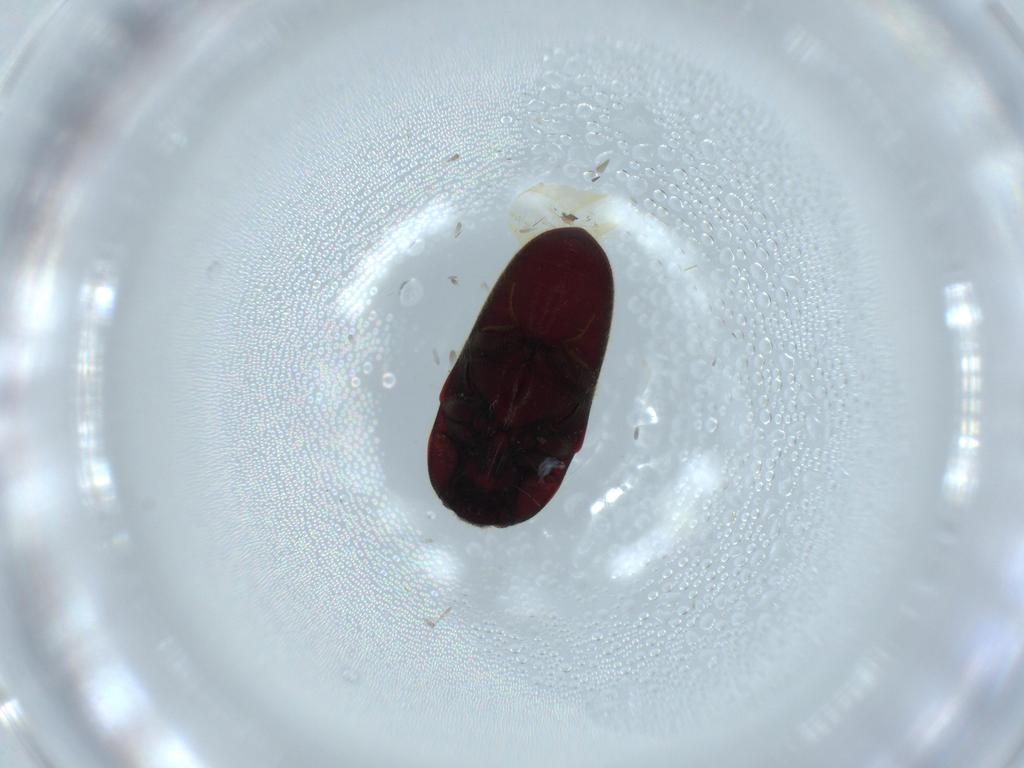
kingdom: Animalia
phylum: Arthropoda
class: Insecta
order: Coleoptera
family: Throscidae
